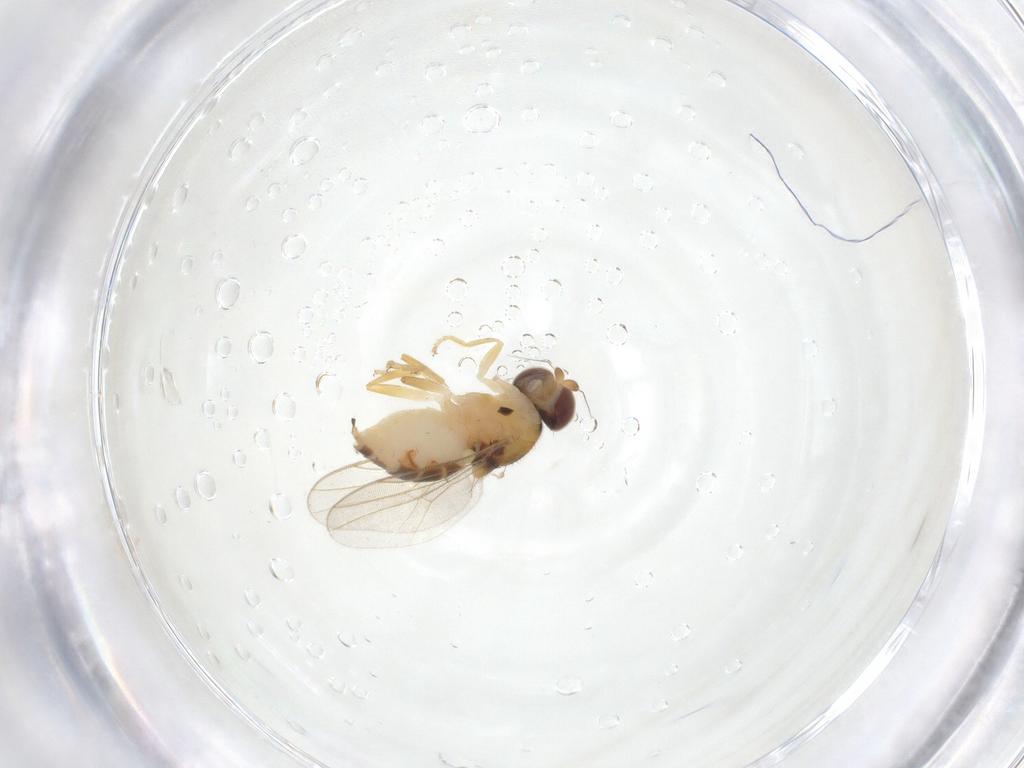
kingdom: Animalia
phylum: Arthropoda
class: Insecta
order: Diptera
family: Chloropidae
